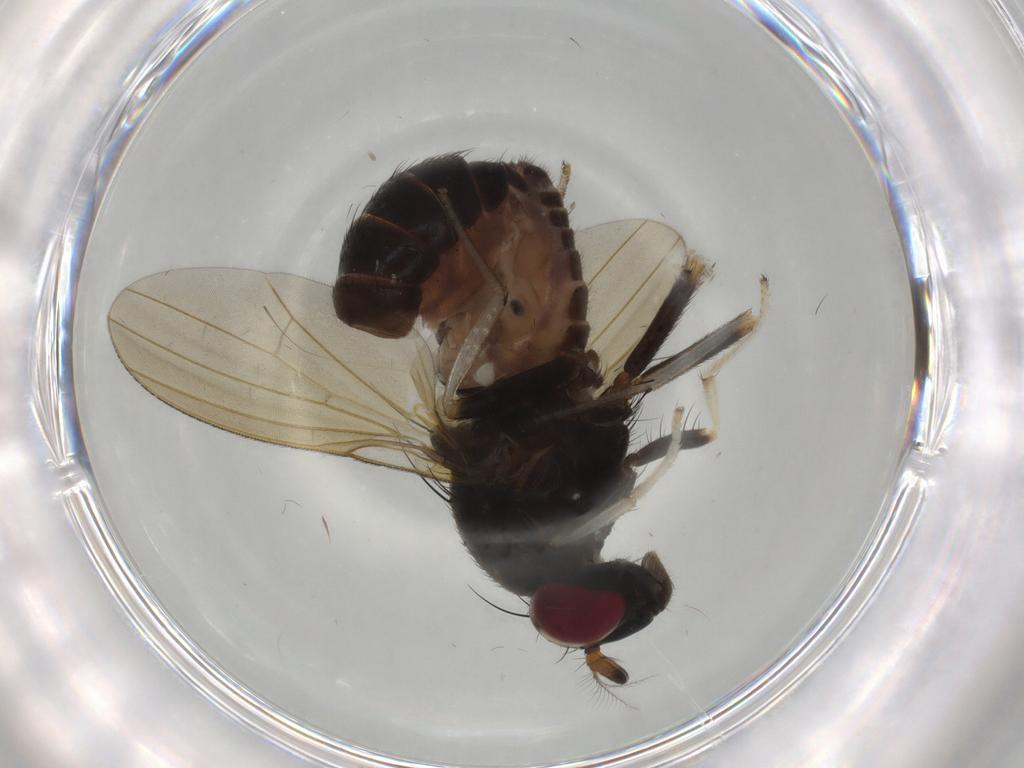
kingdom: Animalia
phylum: Arthropoda
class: Insecta
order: Diptera
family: Lauxaniidae
